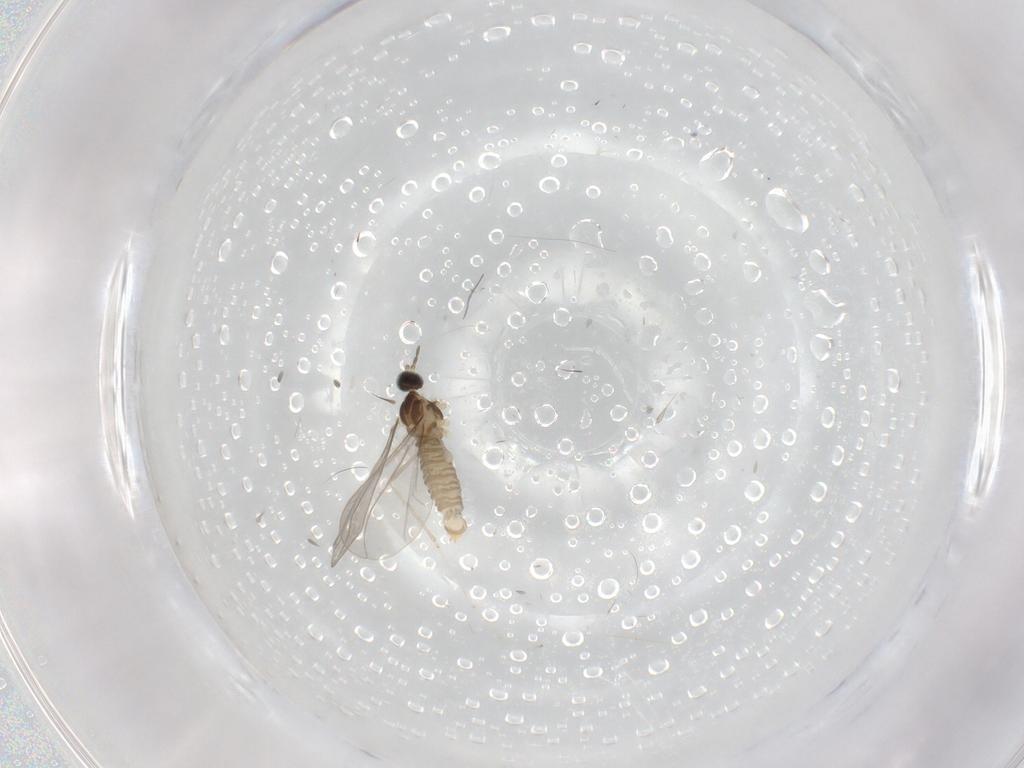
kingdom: Animalia
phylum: Arthropoda
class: Insecta
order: Diptera
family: Cecidomyiidae
